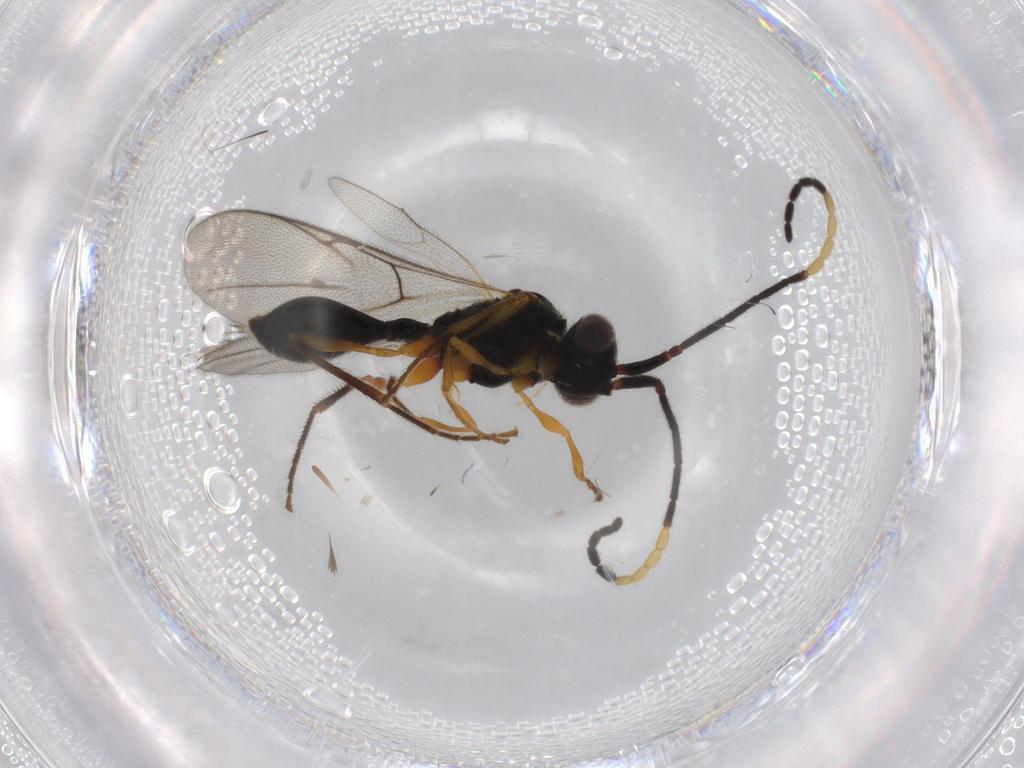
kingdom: Animalia
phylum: Arthropoda
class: Insecta
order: Hymenoptera
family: Diapriidae
